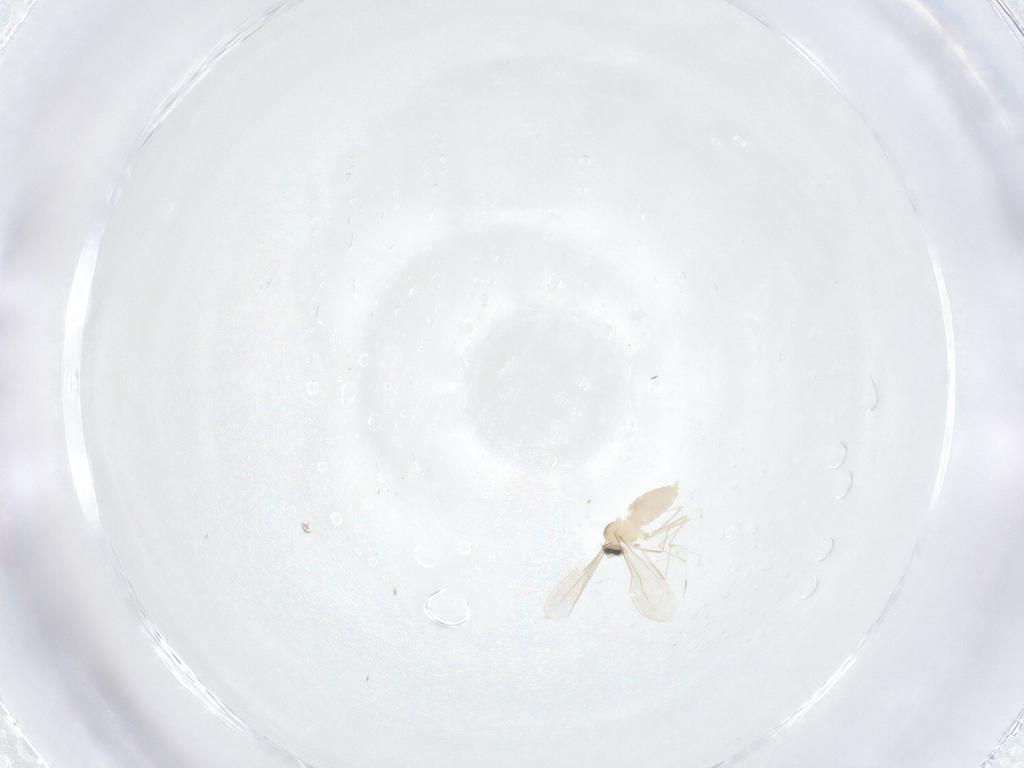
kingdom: Animalia
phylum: Arthropoda
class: Insecta
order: Diptera
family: Cecidomyiidae
